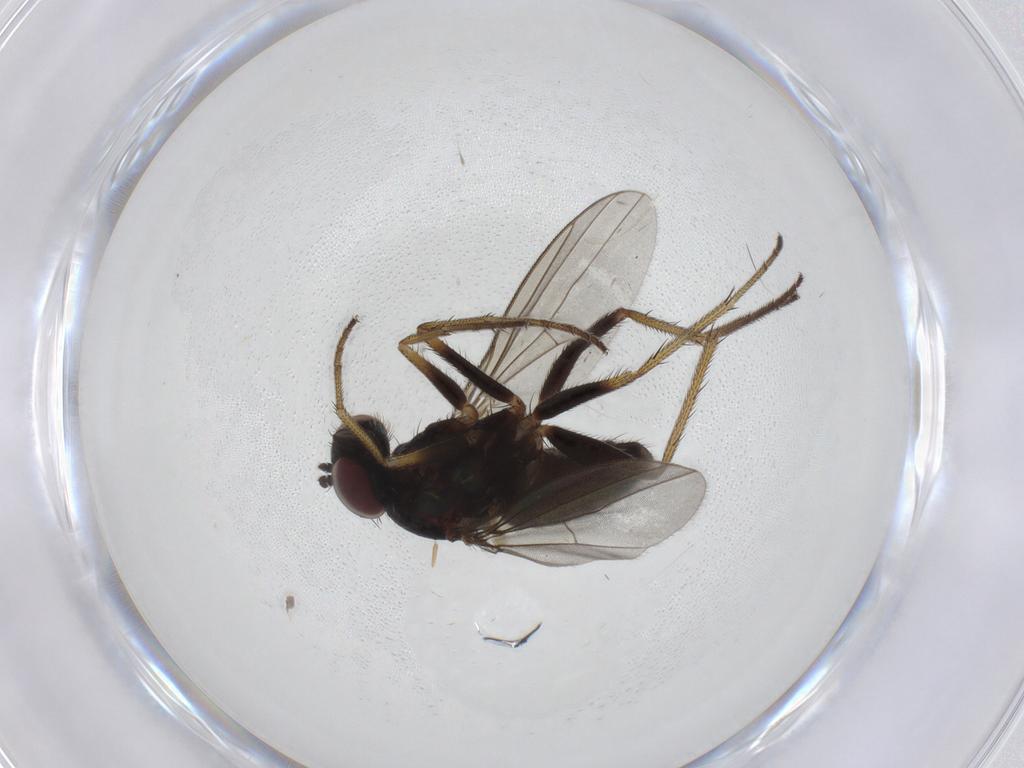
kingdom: Animalia
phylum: Arthropoda
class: Insecta
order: Diptera
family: Dolichopodidae
